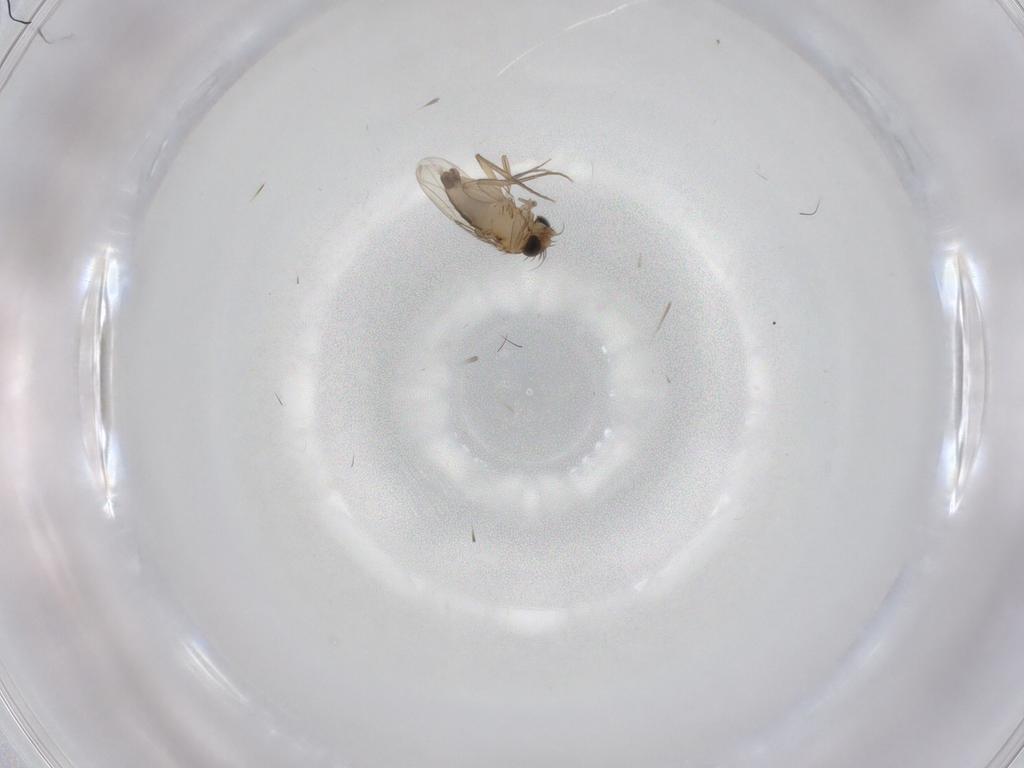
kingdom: Animalia
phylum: Arthropoda
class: Insecta
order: Diptera
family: Phoridae
